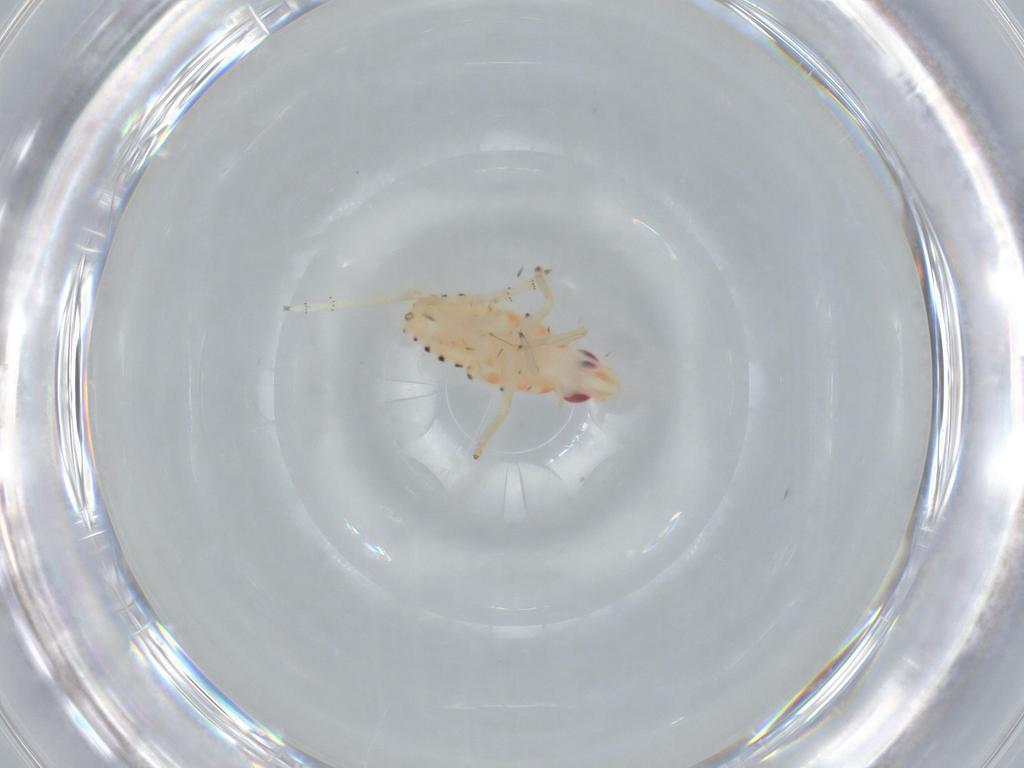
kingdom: Animalia
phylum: Arthropoda
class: Insecta
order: Hemiptera
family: Tropiduchidae
